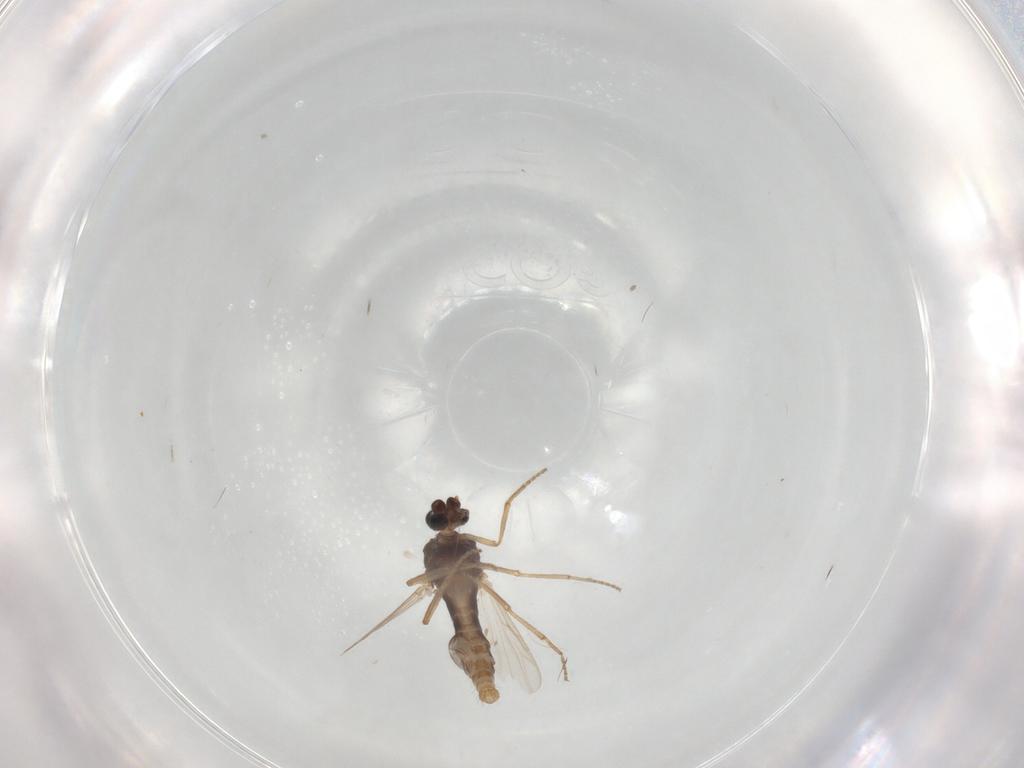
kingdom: Animalia
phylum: Arthropoda
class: Insecta
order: Diptera
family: Ceratopogonidae
